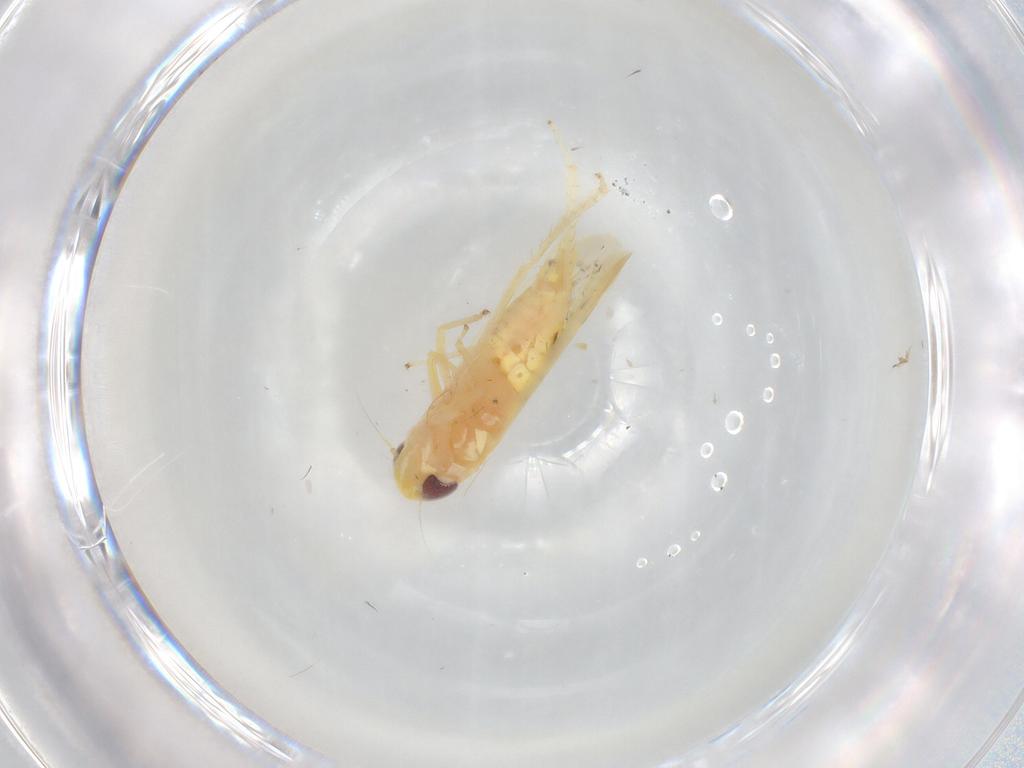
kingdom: Animalia
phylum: Arthropoda
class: Insecta
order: Hemiptera
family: Cicadellidae
